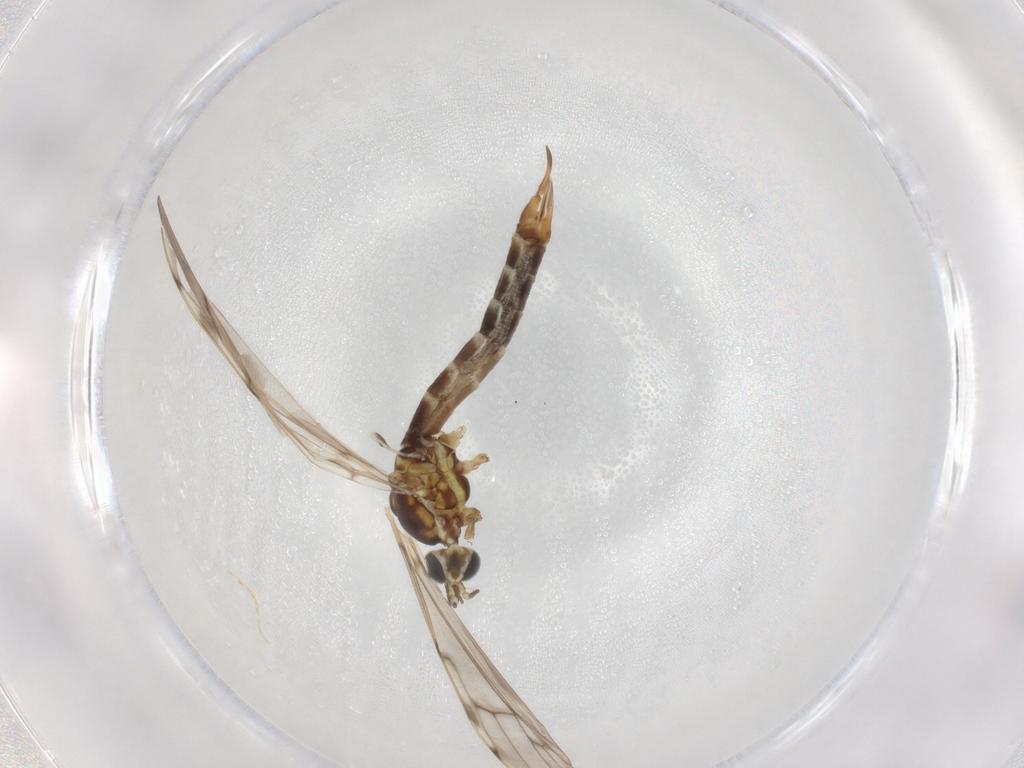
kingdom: Animalia
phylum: Arthropoda
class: Insecta
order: Diptera
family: Limoniidae
